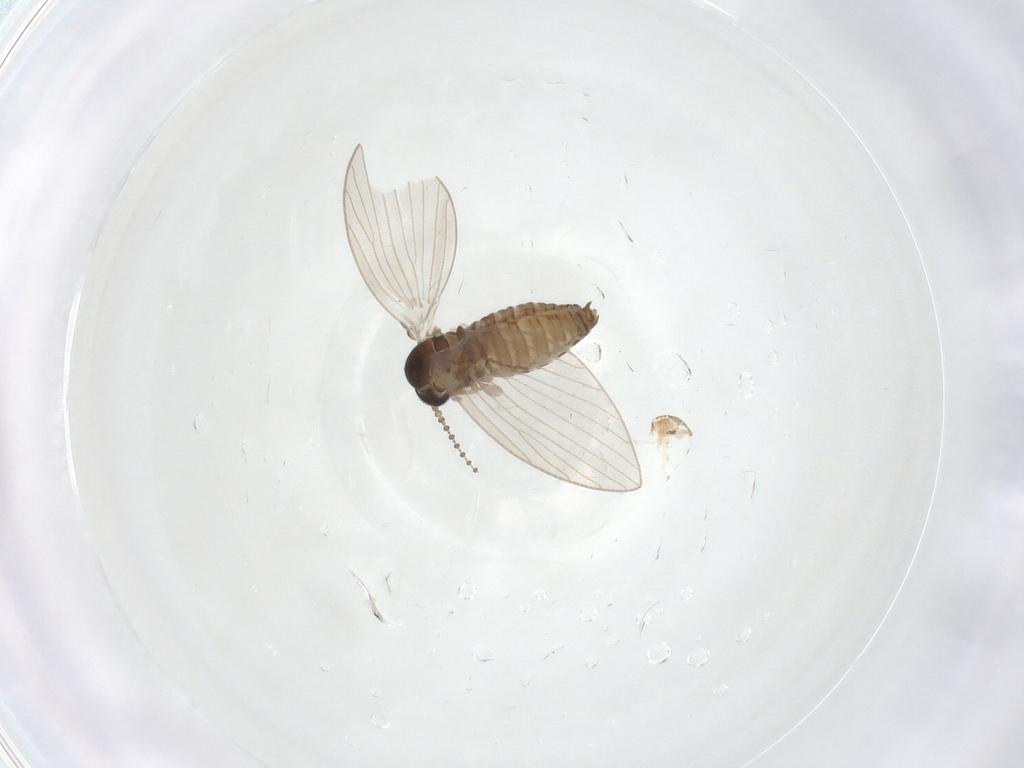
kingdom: Animalia
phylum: Arthropoda
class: Insecta
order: Diptera
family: Psychodidae
